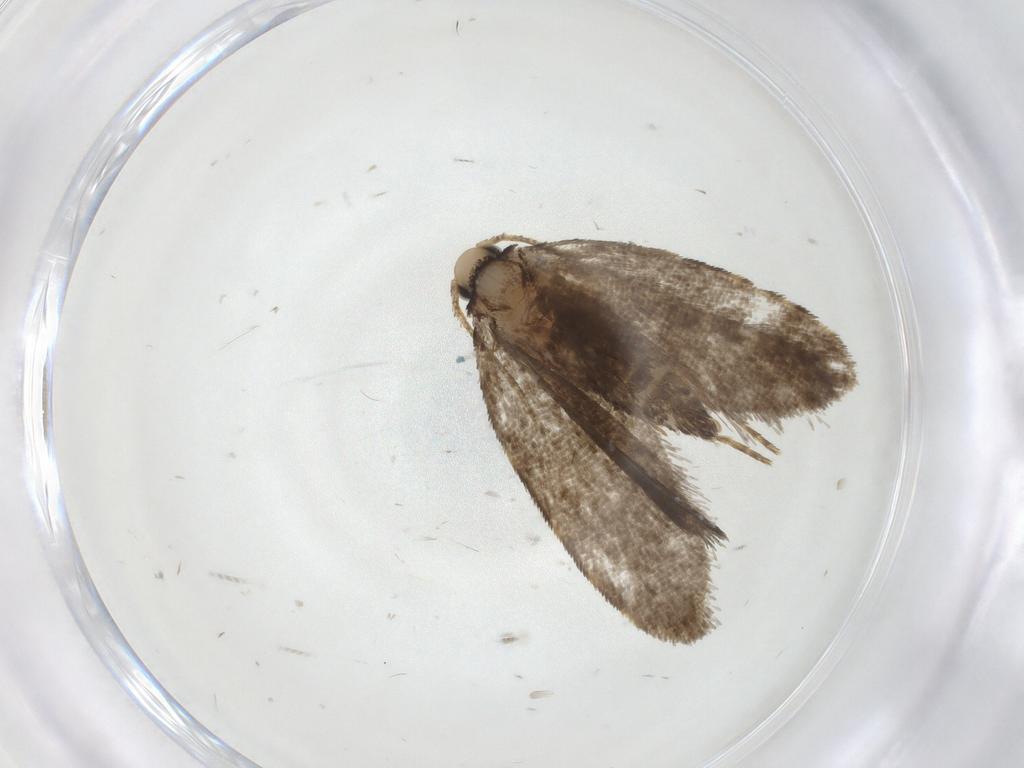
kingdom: Animalia
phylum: Arthropoda
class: Insecta
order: Lepidoptera
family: Psychidae
